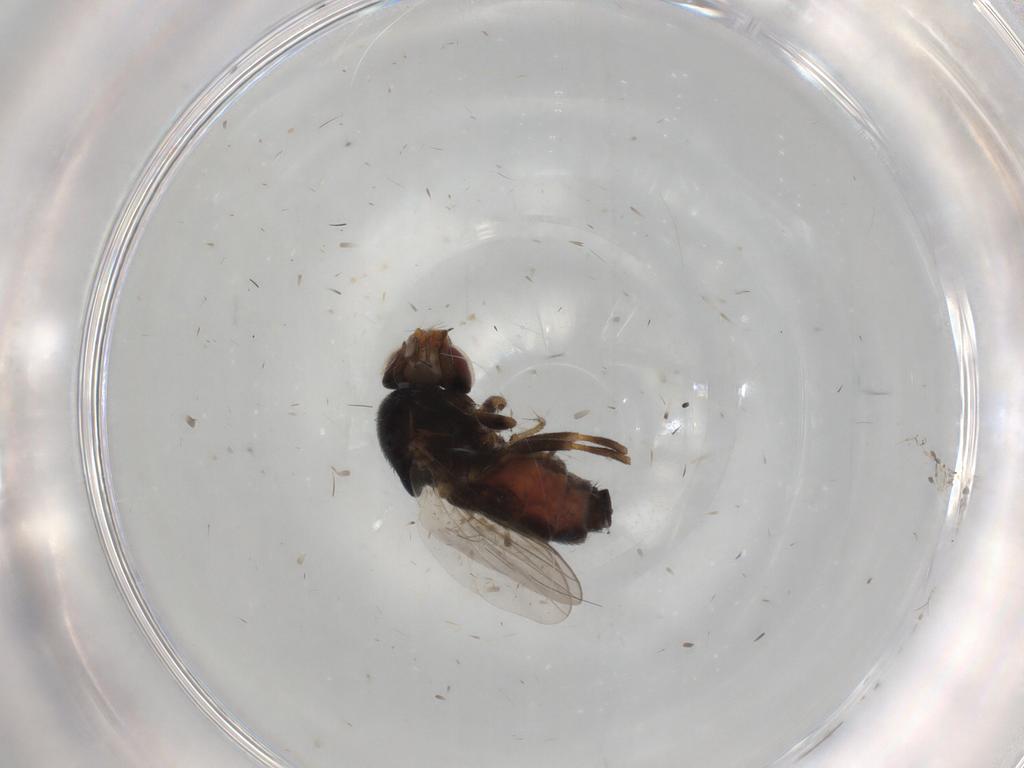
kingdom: Animalia
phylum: Arthropoda
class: Insecta
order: Diptera
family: Chloropidae
